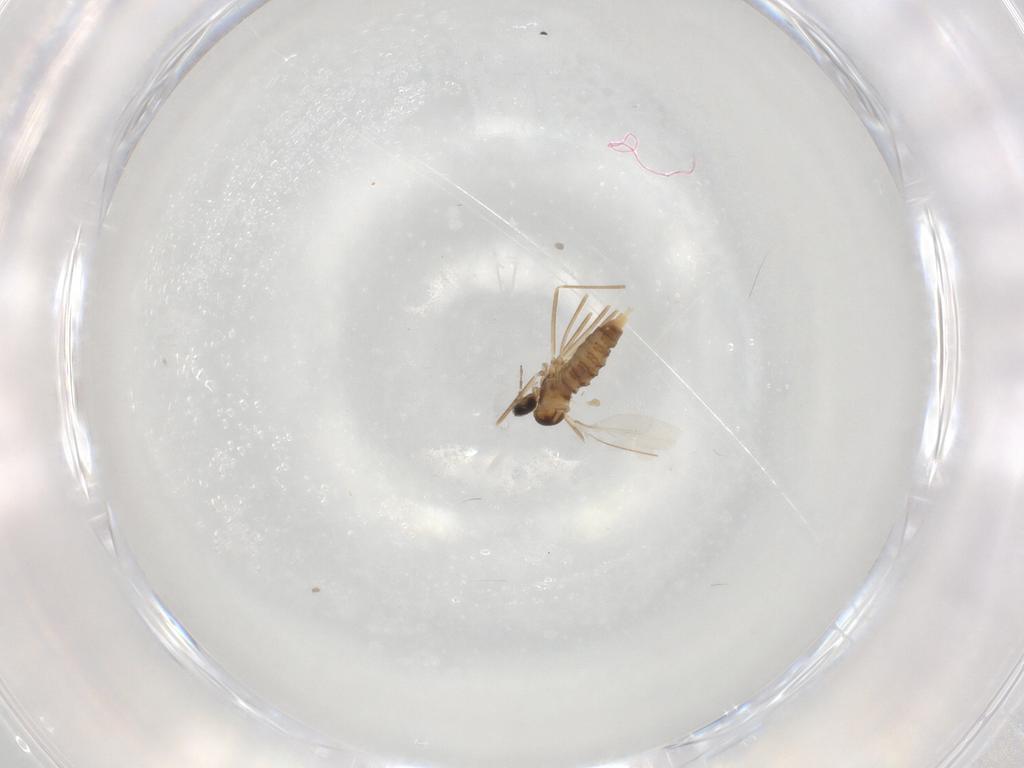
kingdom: Animalia
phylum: Arthropoda
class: Insecta
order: Diptera
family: Cecidomyiidae
